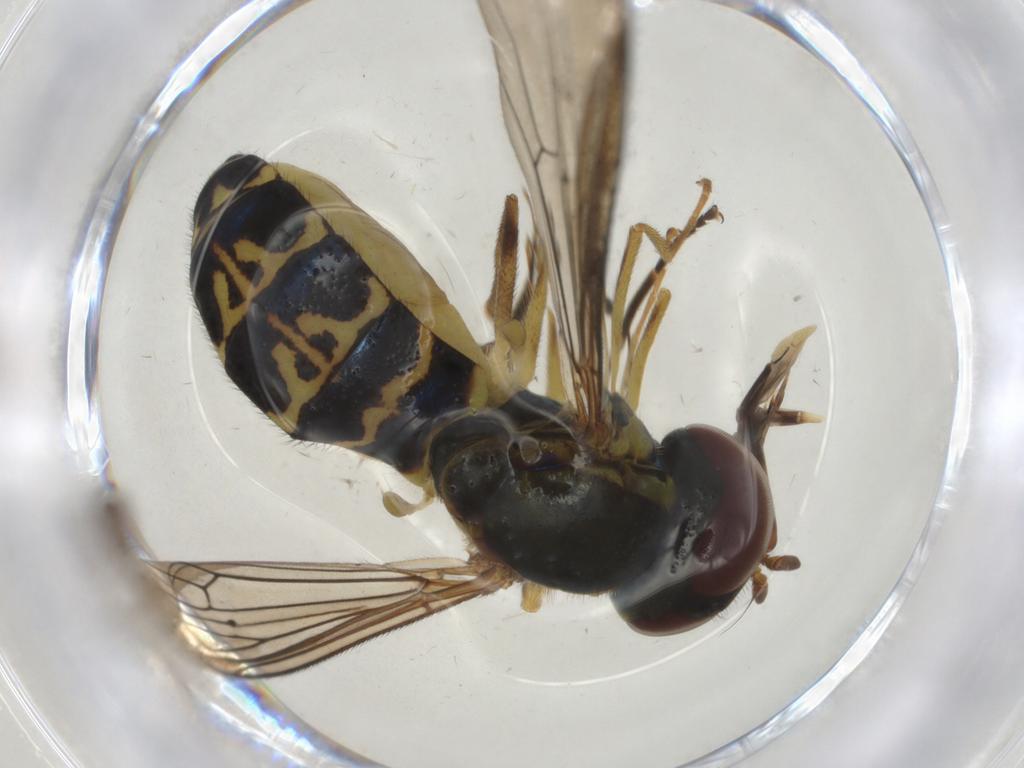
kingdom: Animalia
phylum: Arthropoda
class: Insecta
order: Diptera
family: Syrphidae
